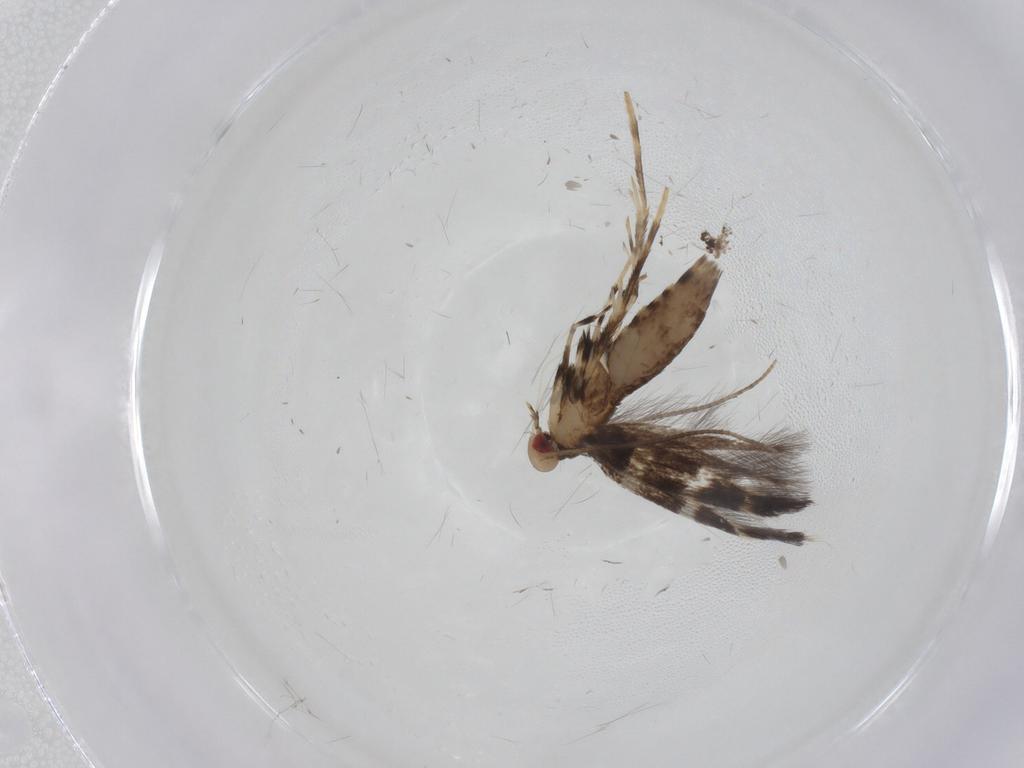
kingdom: Animalia
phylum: Arthropoda
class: Insecta
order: Lepidoptera
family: Gracillariidae
